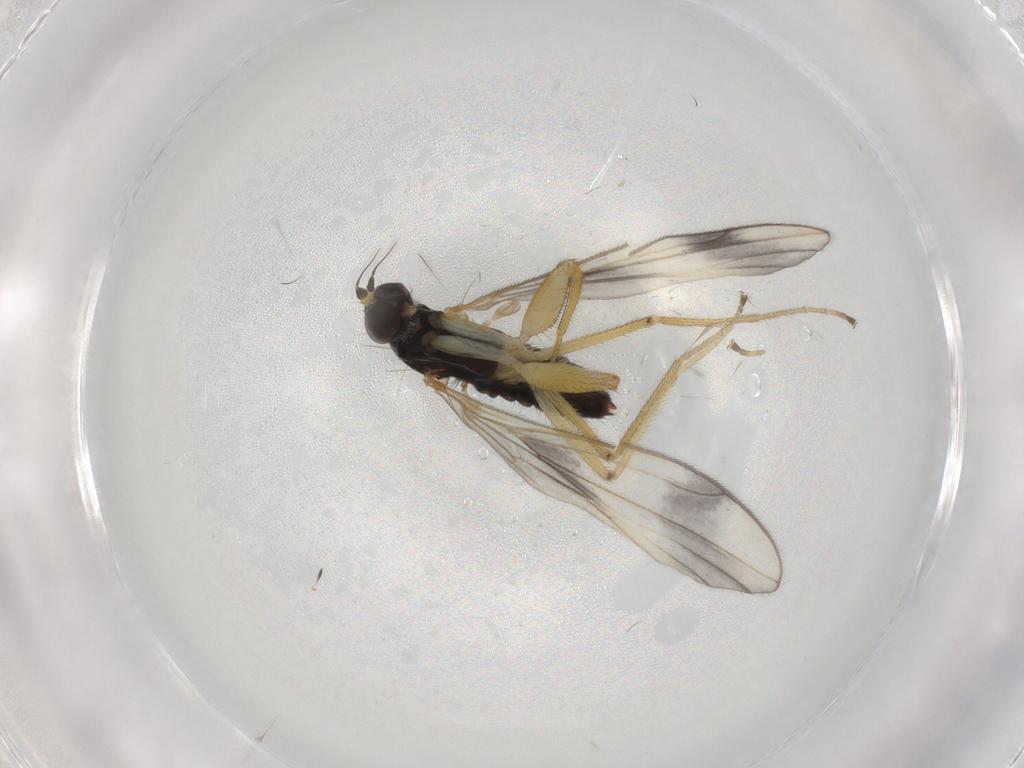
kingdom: Animalia
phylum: Arthropoda
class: Insecta
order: Diptera
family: Empididae
